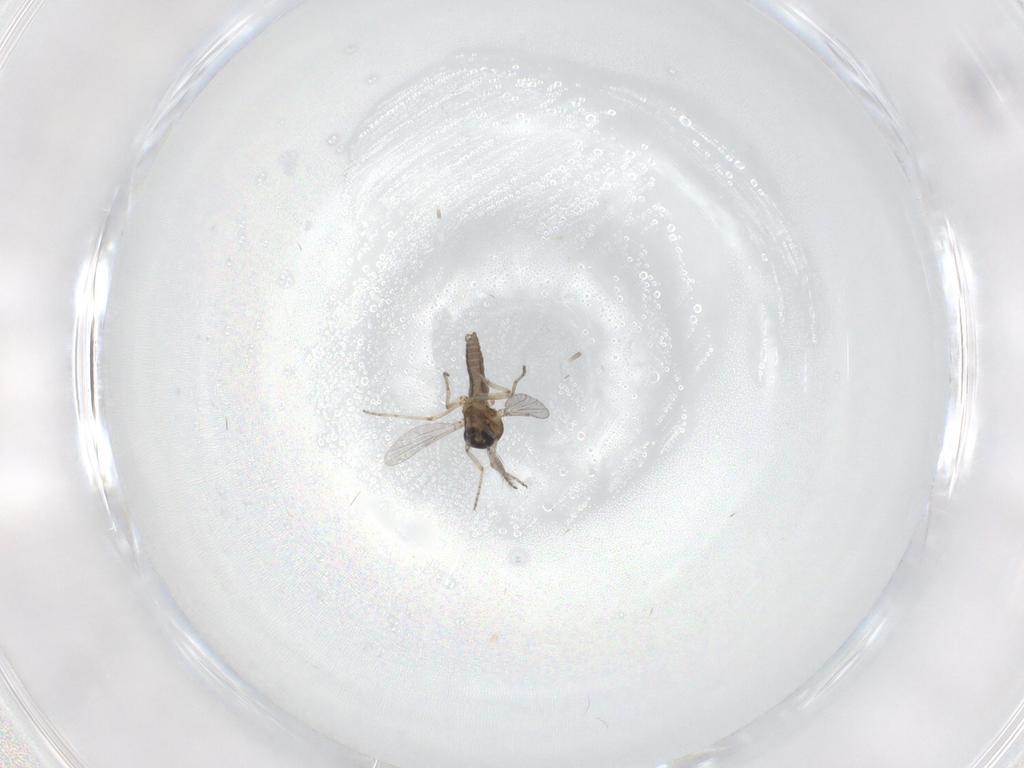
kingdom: Animalia
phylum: Arthropoda
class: Insecta
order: Diptera
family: Ceratopogonidae
